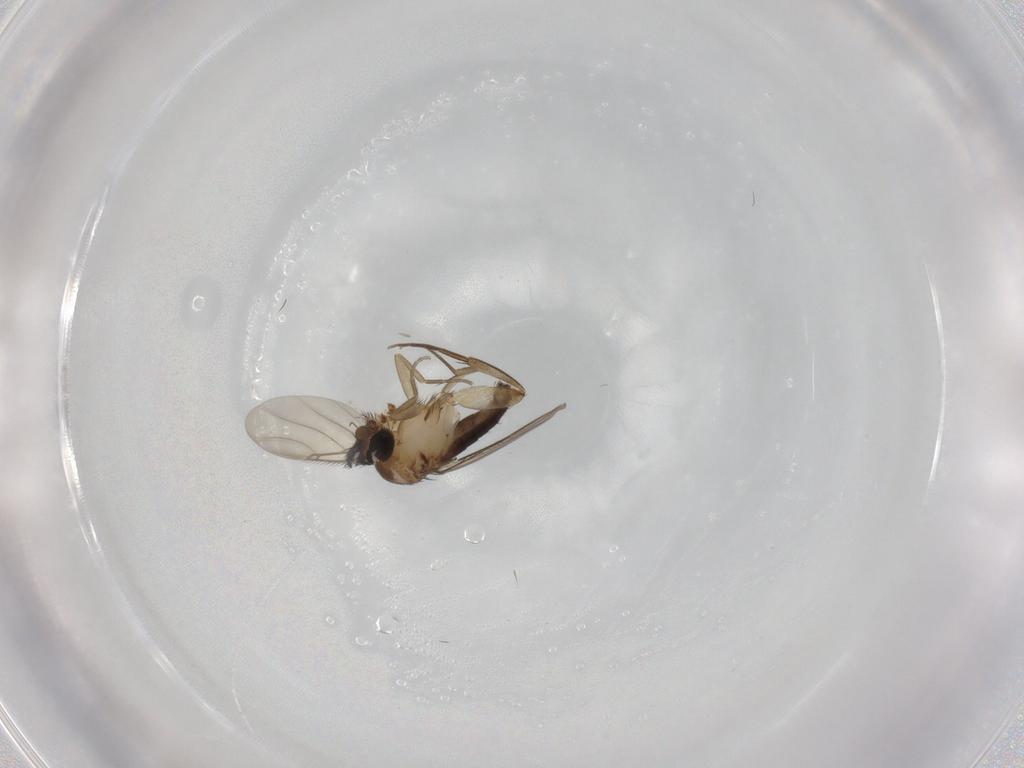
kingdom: Animalia
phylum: Arthropoda
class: Insecta
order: Diptera
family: Phoridae
